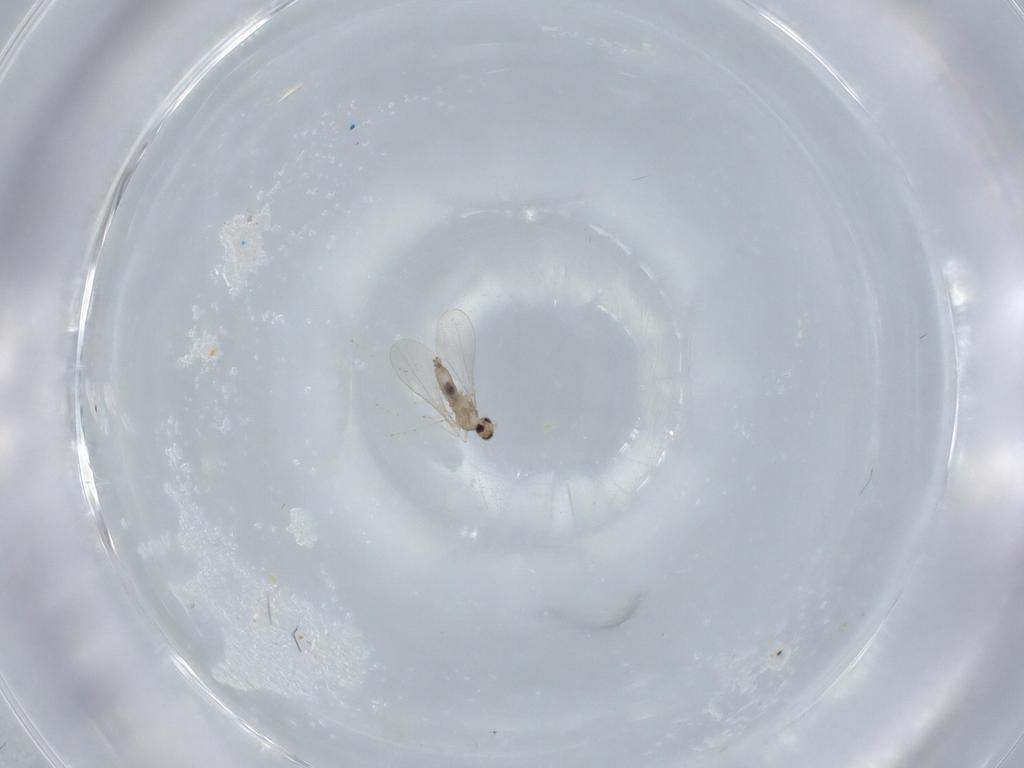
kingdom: Animalia
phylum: Arthropoda
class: Insecta
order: Diptera
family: Cecidomyiidae
